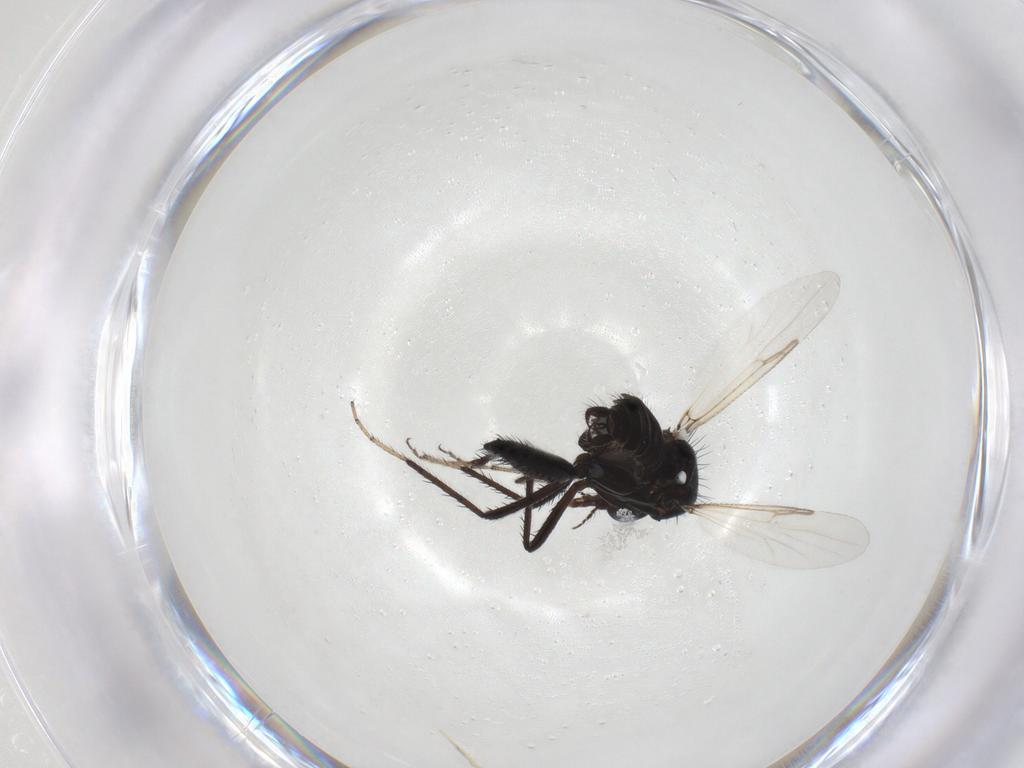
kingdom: Animalia
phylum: Arthropoda
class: Insecta
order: Diptera
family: Ceratopogonidae
